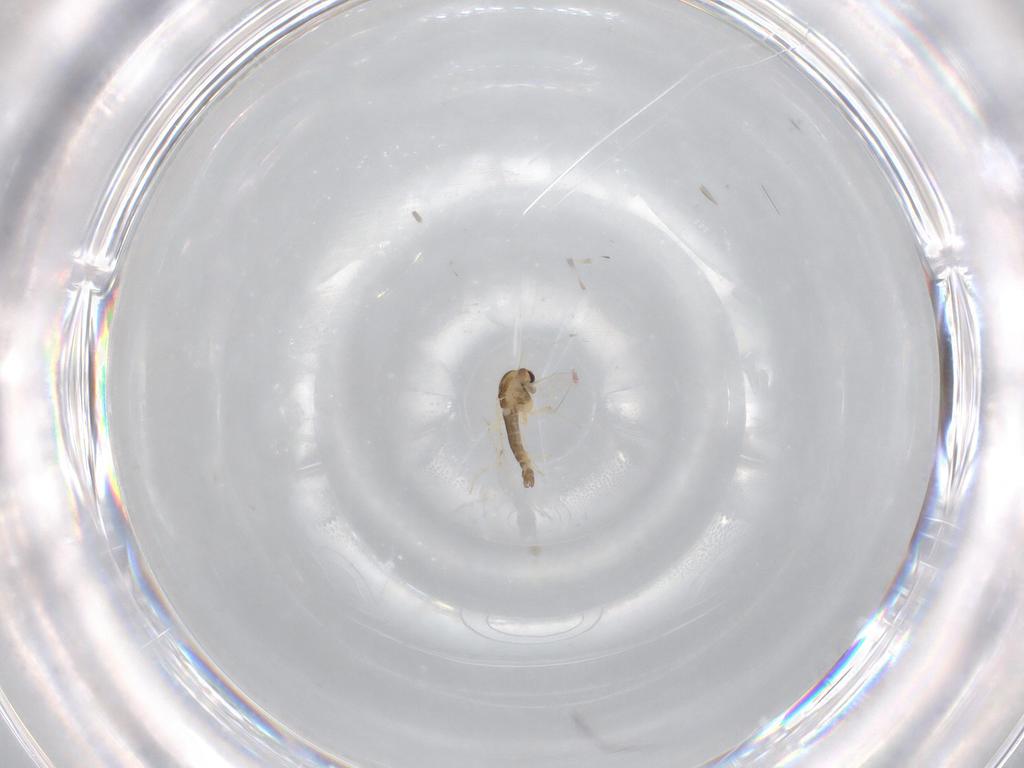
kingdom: Animalia
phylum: Arthropoda
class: Insecta
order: Diptera
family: Chironomidae
